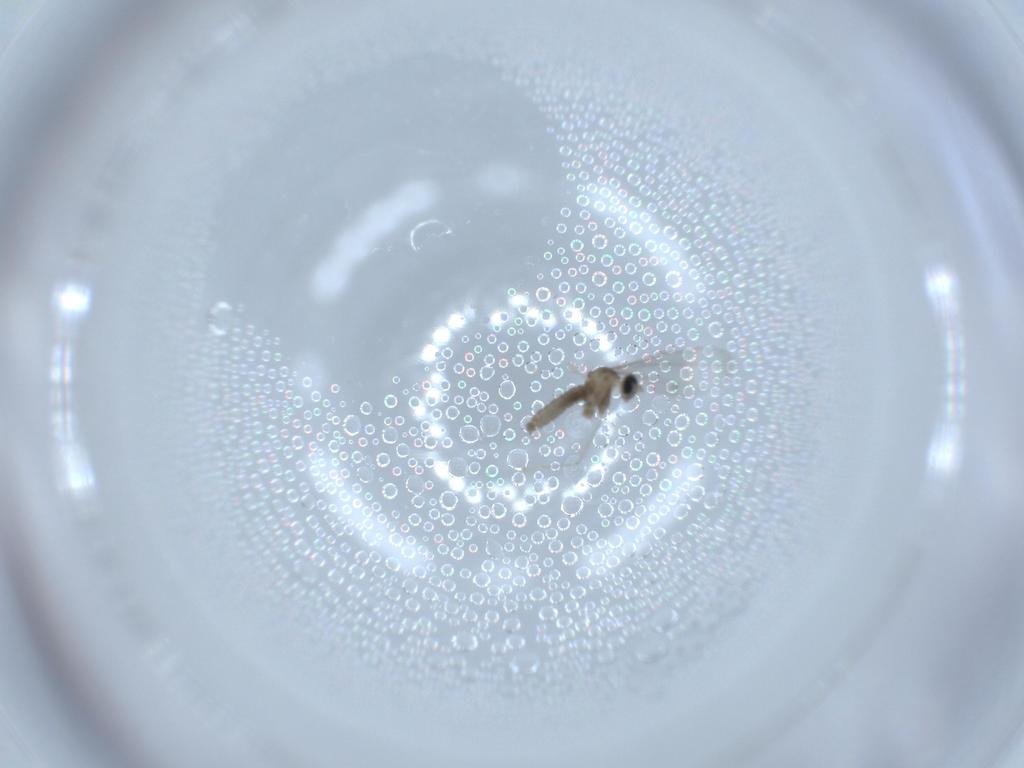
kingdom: Animalia
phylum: Arthropoda
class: Insecta
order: Diptera
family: Cecidomyiidae
